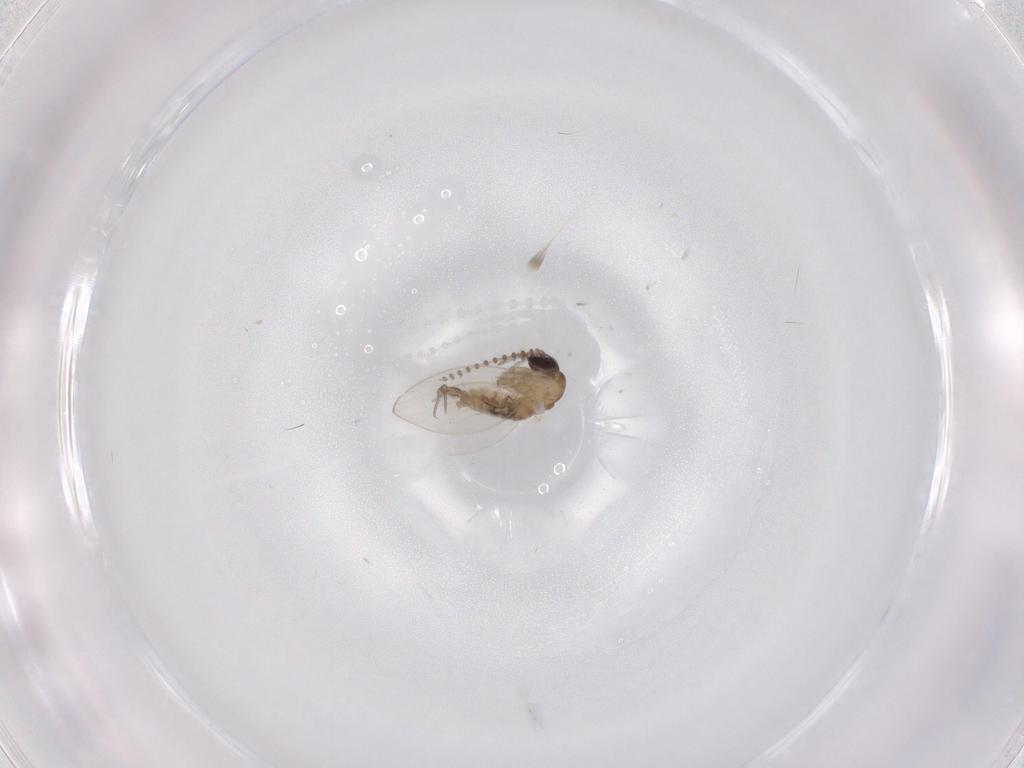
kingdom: Animalia
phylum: Arthropoda
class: Insecta
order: Diptera
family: Psychodidae
